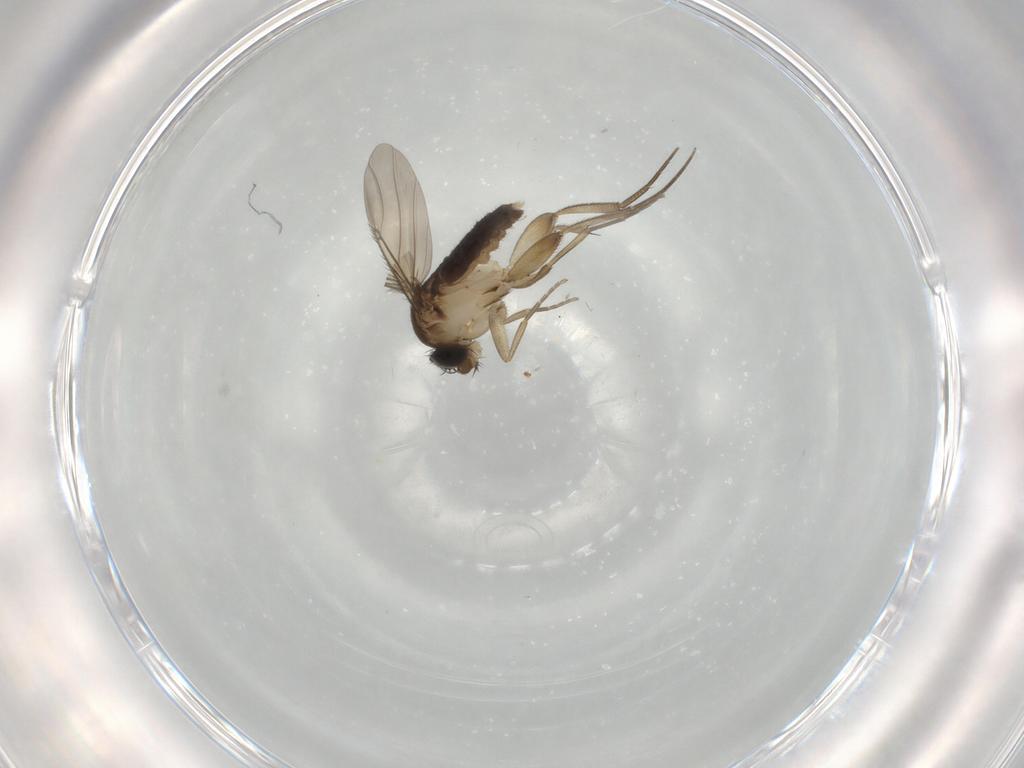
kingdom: Animalia
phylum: Arthropoda
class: Insecta
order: Diptera
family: Phoridae
